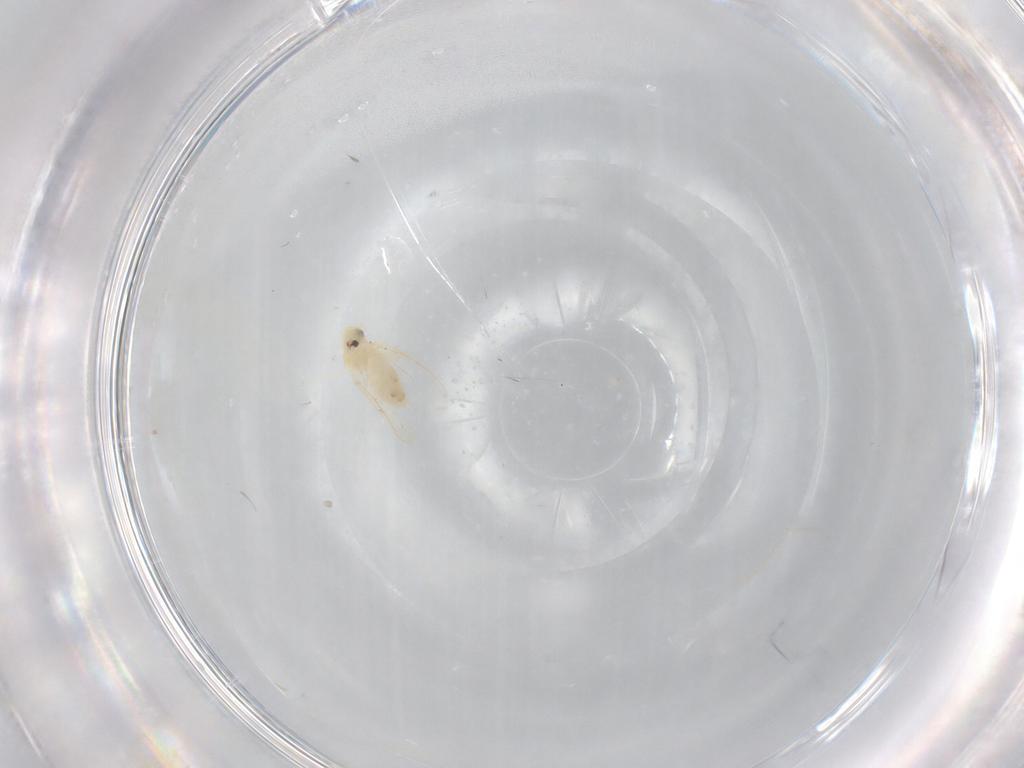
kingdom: Animalia
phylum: Arthropoda
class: Insecta
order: Hemiptera
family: Aleyrodidae
